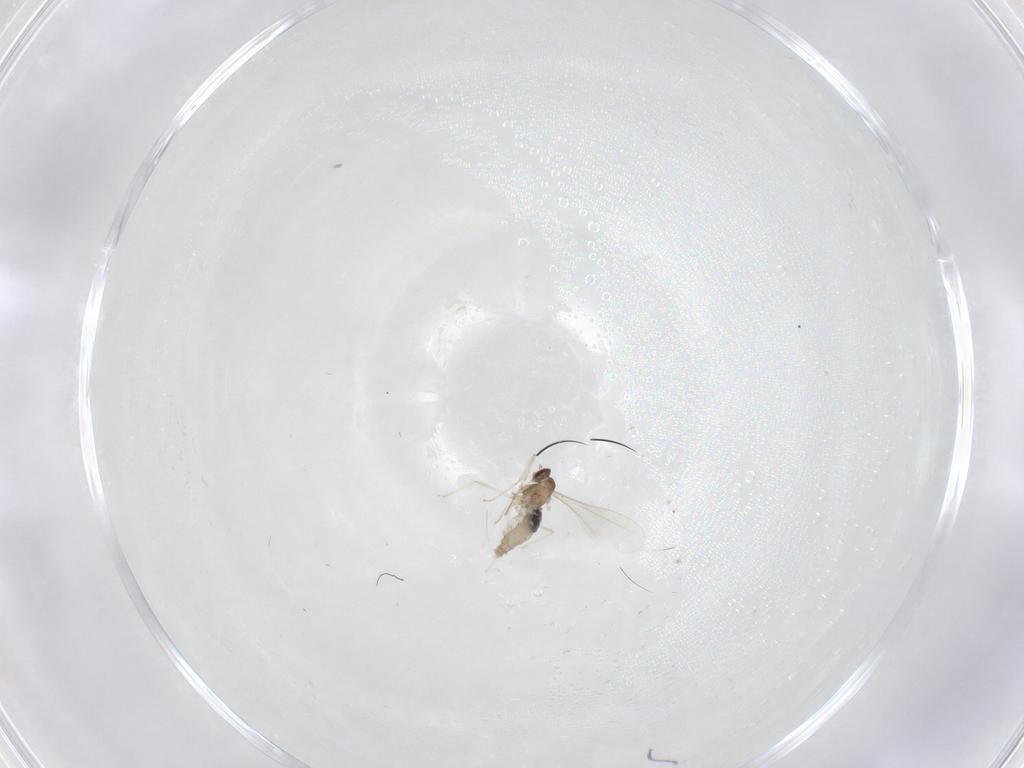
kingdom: Animalia
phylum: Arthropoda
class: Insecta
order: Diptera
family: Cecidomyiidae
